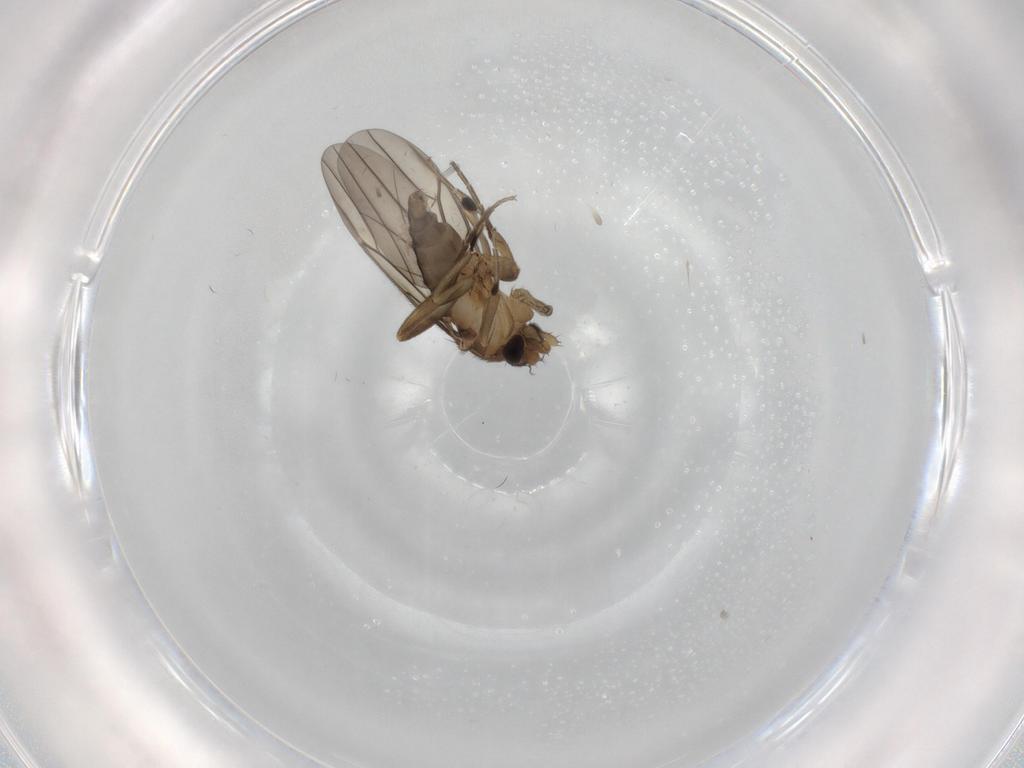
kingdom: Animalia
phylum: Arthropoda
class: Insecta
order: Diptera
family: Phoridae
